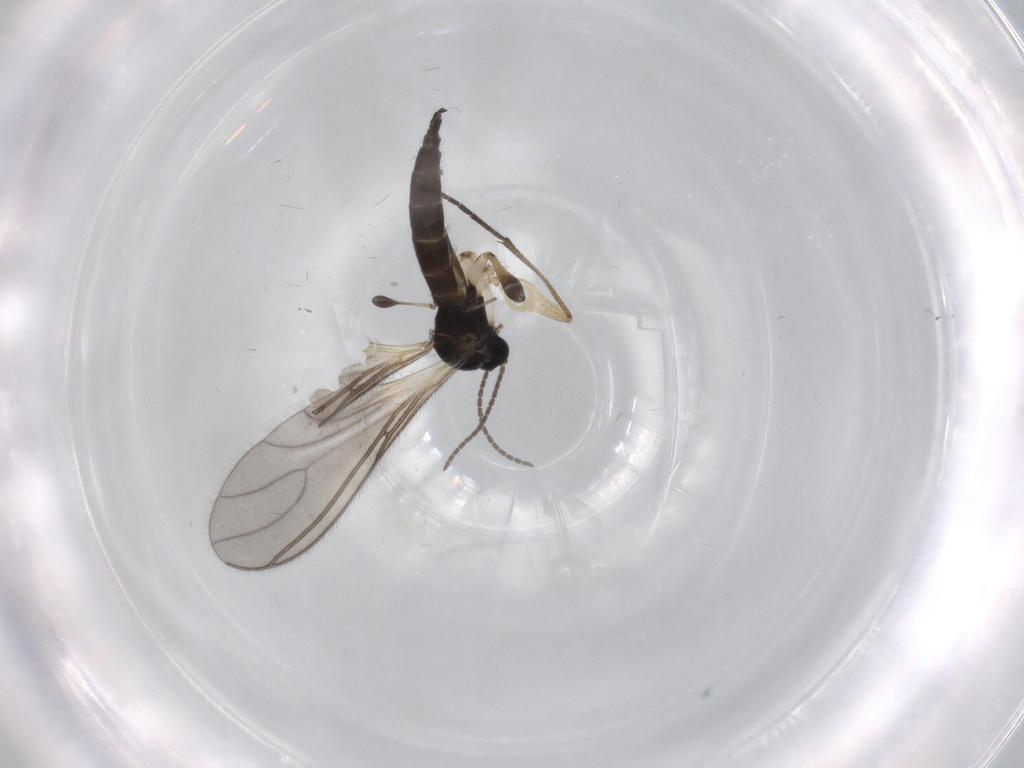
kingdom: Animalia
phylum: Arthropoda
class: Insecta
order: Diptera
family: Sciaridae
